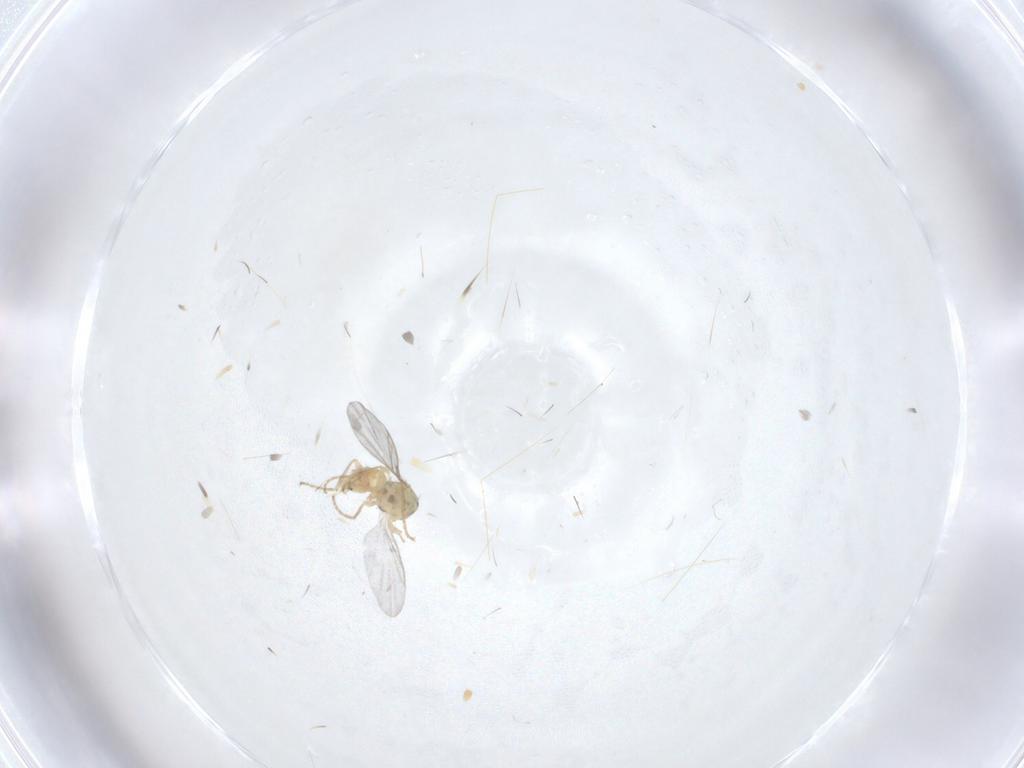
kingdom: Animalia
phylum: Arthropoda
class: Insecta
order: Diptera
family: Agromyzidae
